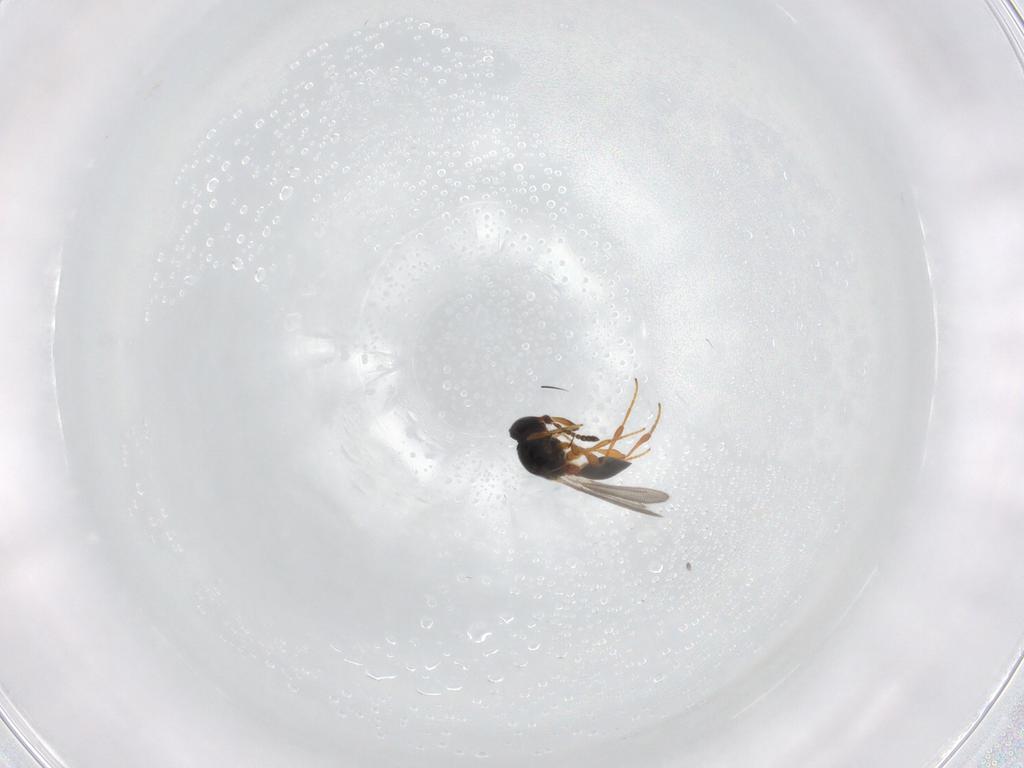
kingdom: Animalia
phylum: Arthropoda
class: Insecta
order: Hymenoptera
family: Platygastridae
